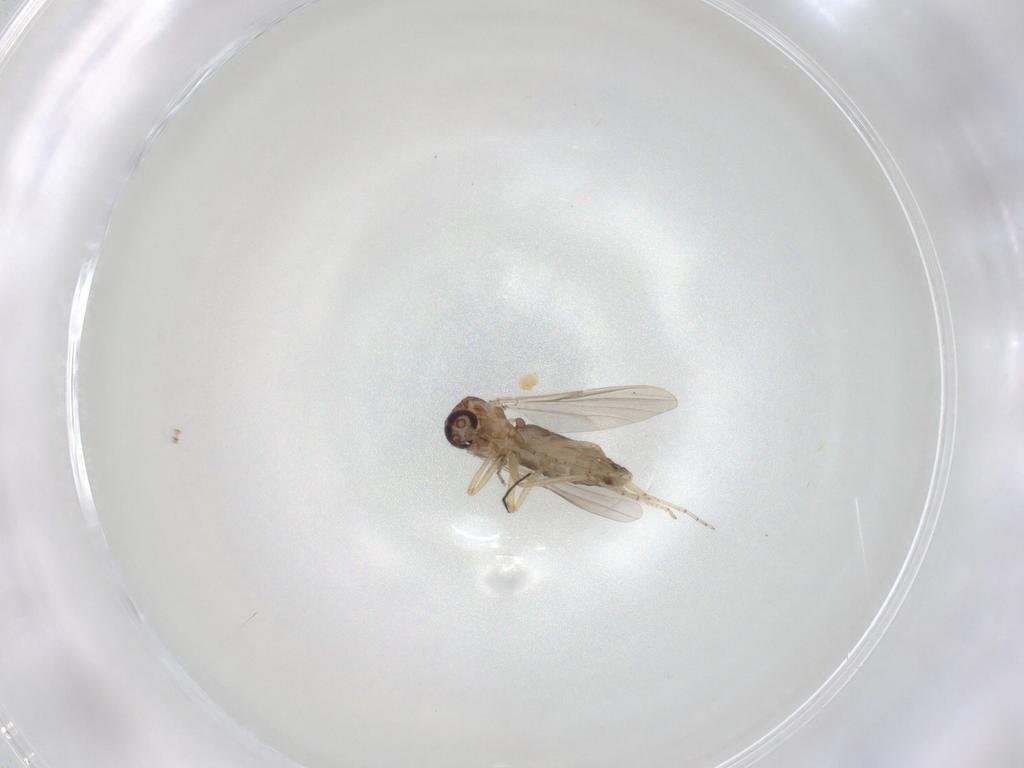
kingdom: Animalia
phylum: Arthropoda
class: Insecta
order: Diptera
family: Ceratopogonidae
